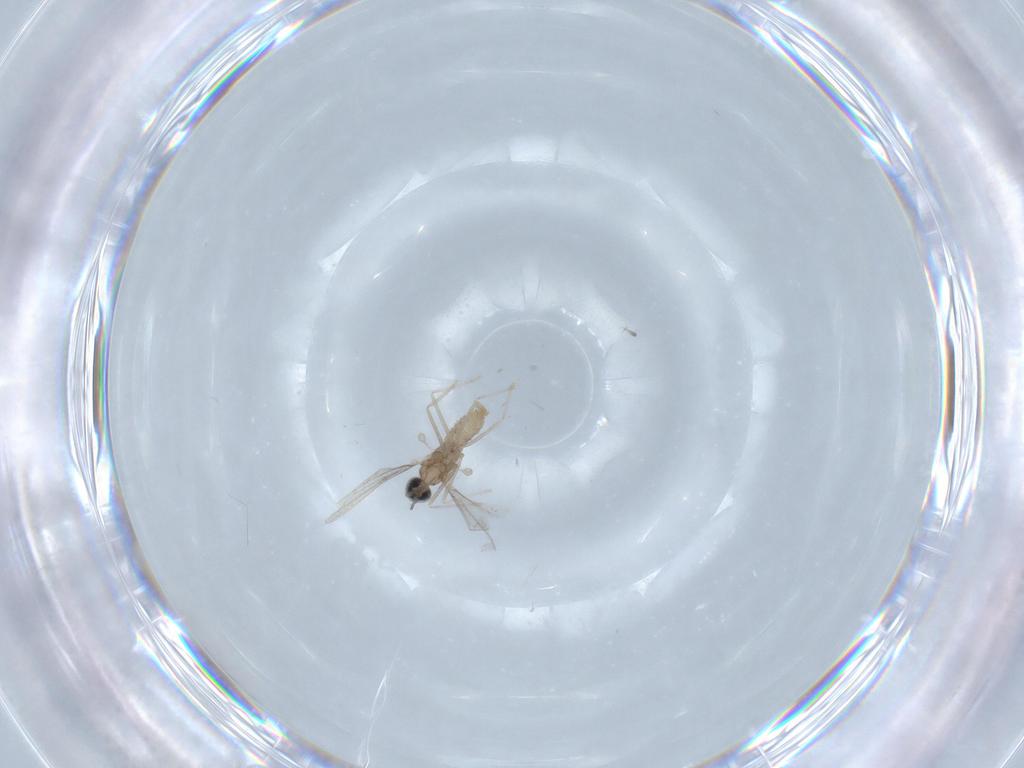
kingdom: Animalia
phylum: Arthropoda
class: Insecta
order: Diptera
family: Cecidomyiidae
